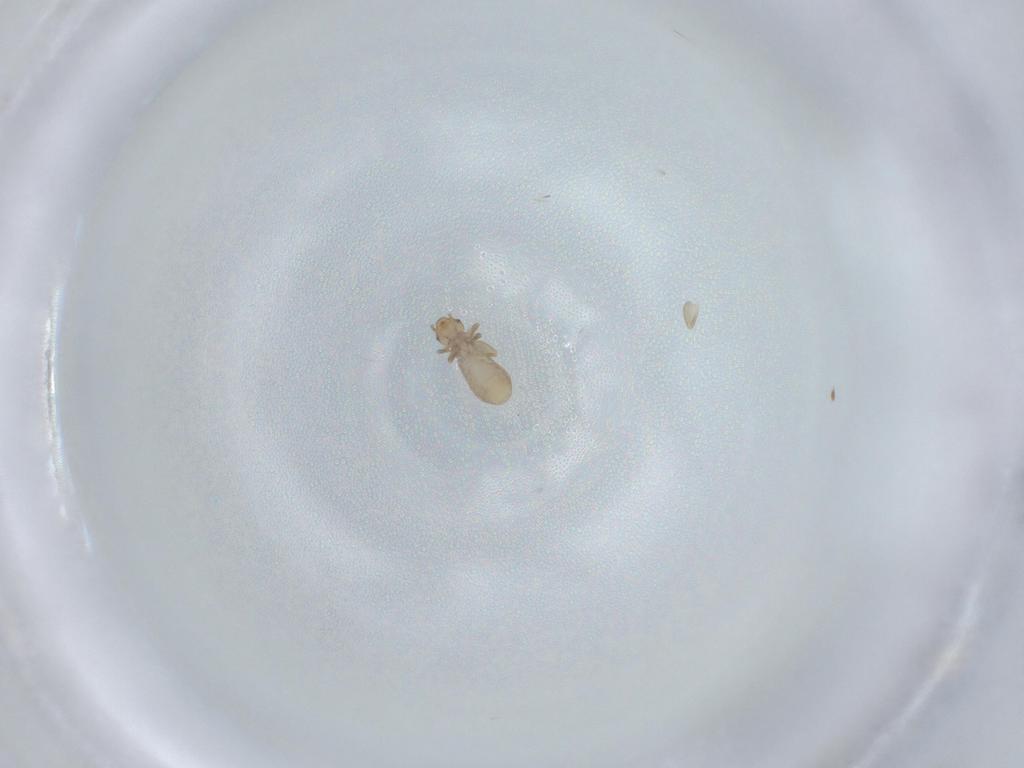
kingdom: Animalia
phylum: Arthropoda
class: Insecta
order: Psocodea
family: Liposcelididae
